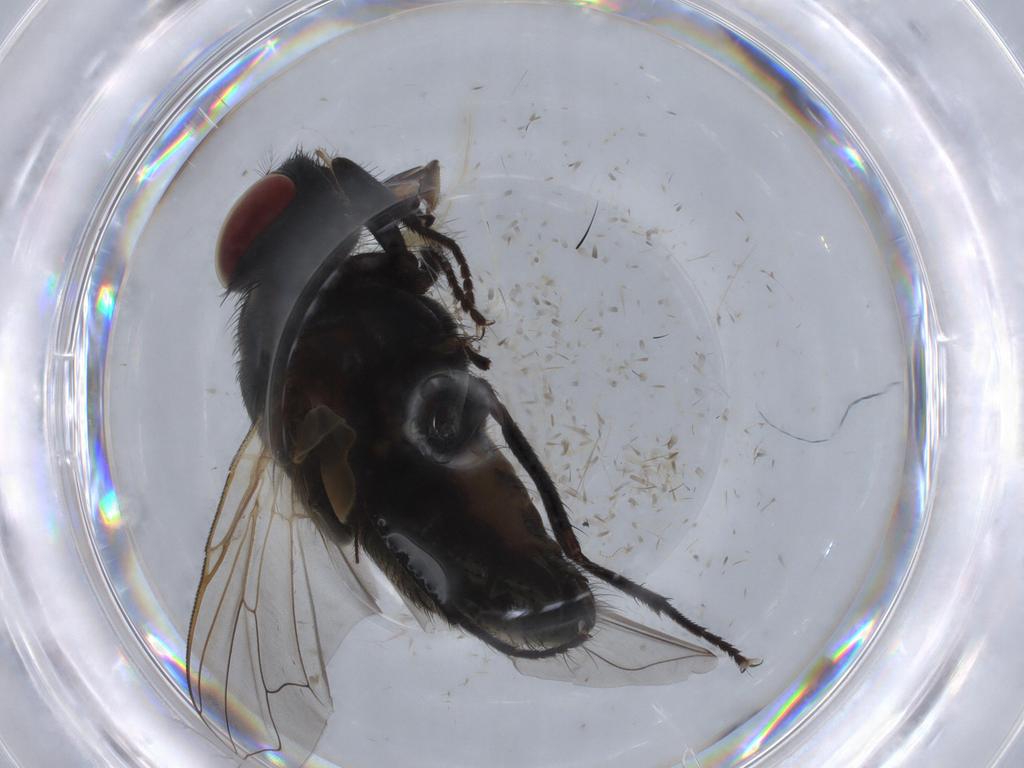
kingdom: Animalia
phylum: Arthropoda
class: Insecta
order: Diptera
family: Cecidomyiidae
